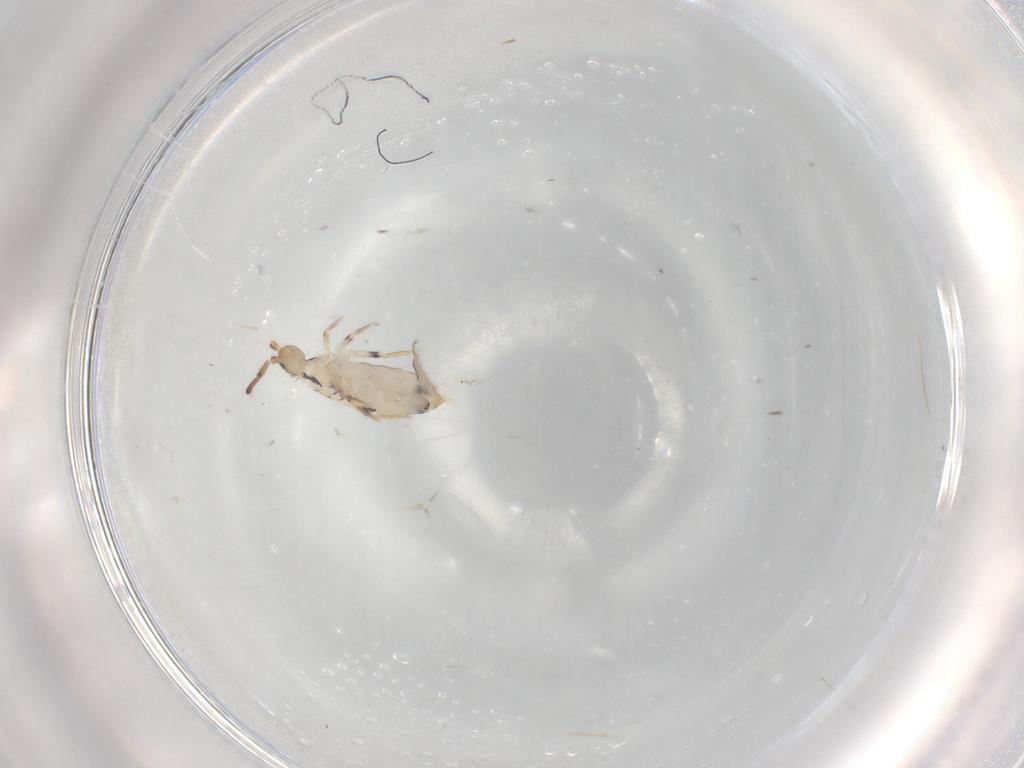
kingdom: Animalia
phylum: Arthropoda
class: Collembola
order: Entomobryomorpha
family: Entomobryidae
